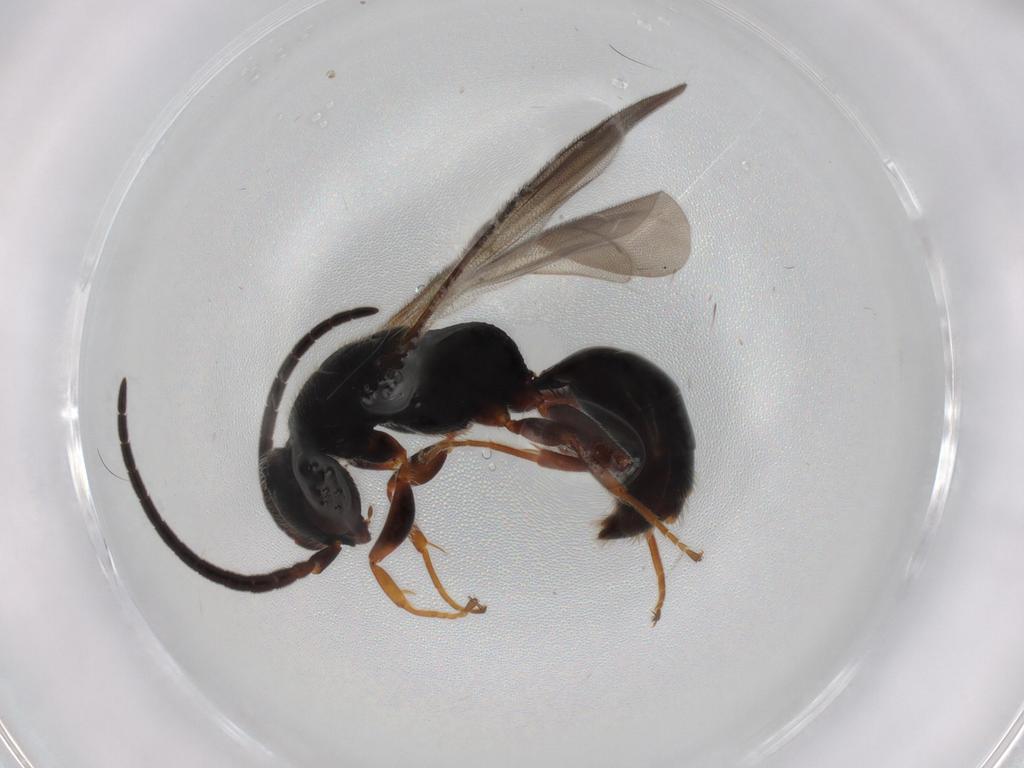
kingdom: Animalia
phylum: Arthropoda
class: Insecta
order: Hymenoptera
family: Bethylidae
